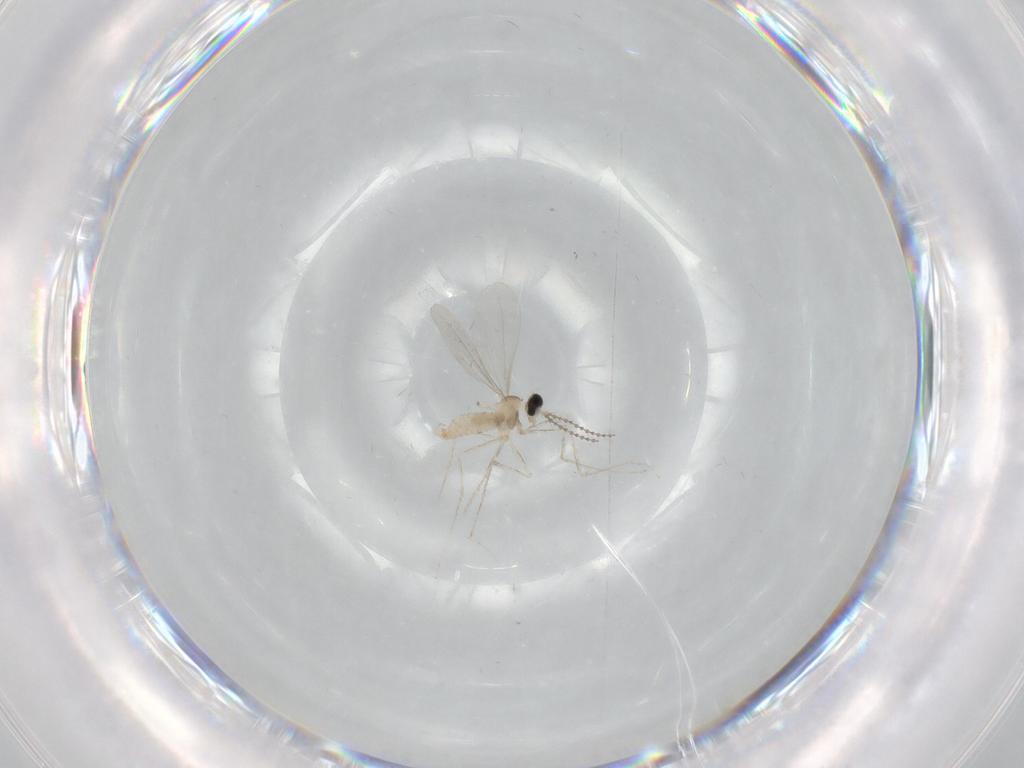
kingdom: Animalia
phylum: Arthropoda
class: Insecta
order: Diptera
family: Cecidomyiidae
